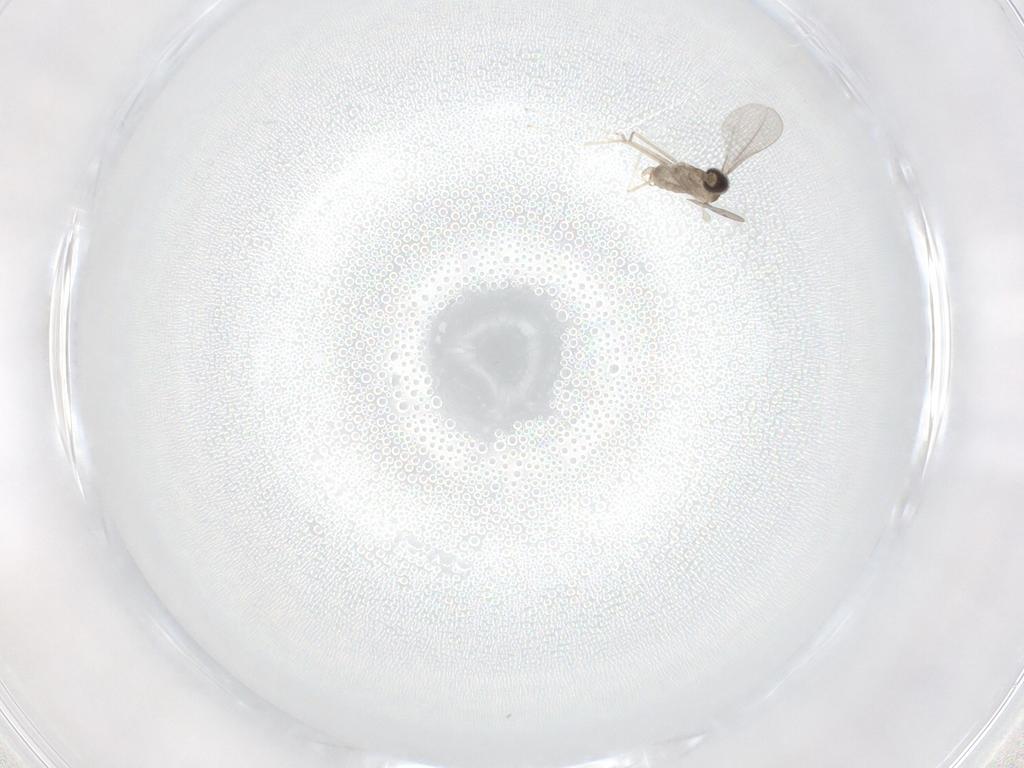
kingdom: Animalia
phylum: Arthropoda
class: Insecta
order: Diptera
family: Cecidomyiidae
